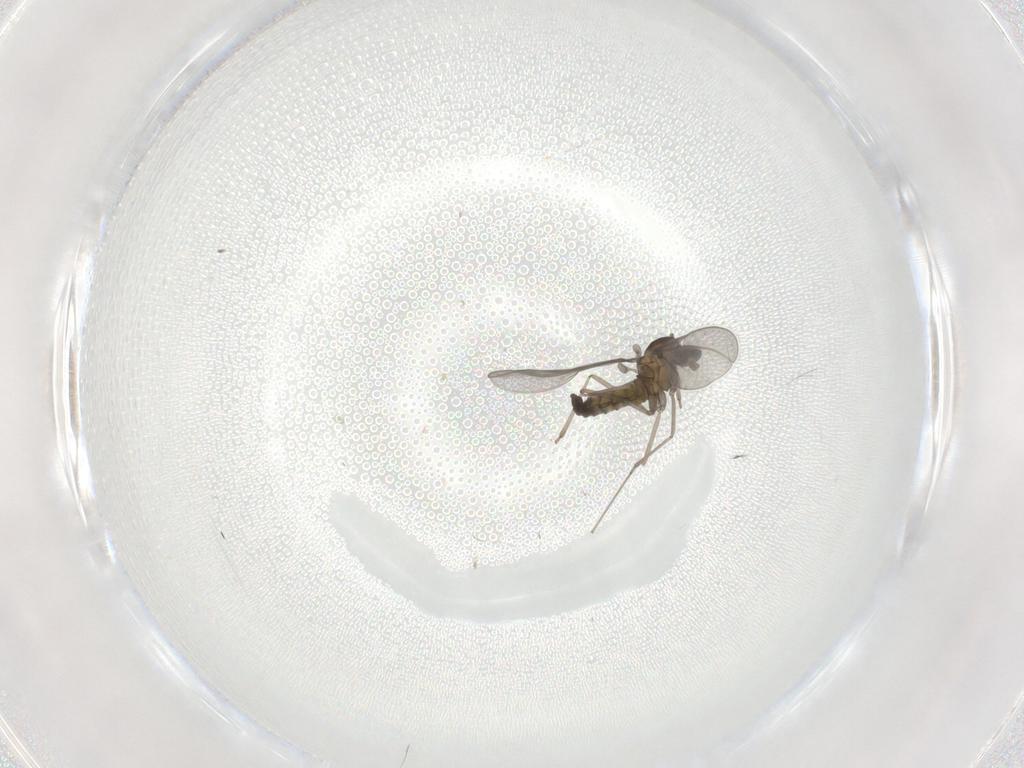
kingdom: Animalia
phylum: Arthropoda
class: Insecta
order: Diptera
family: Cecidomyiidae
